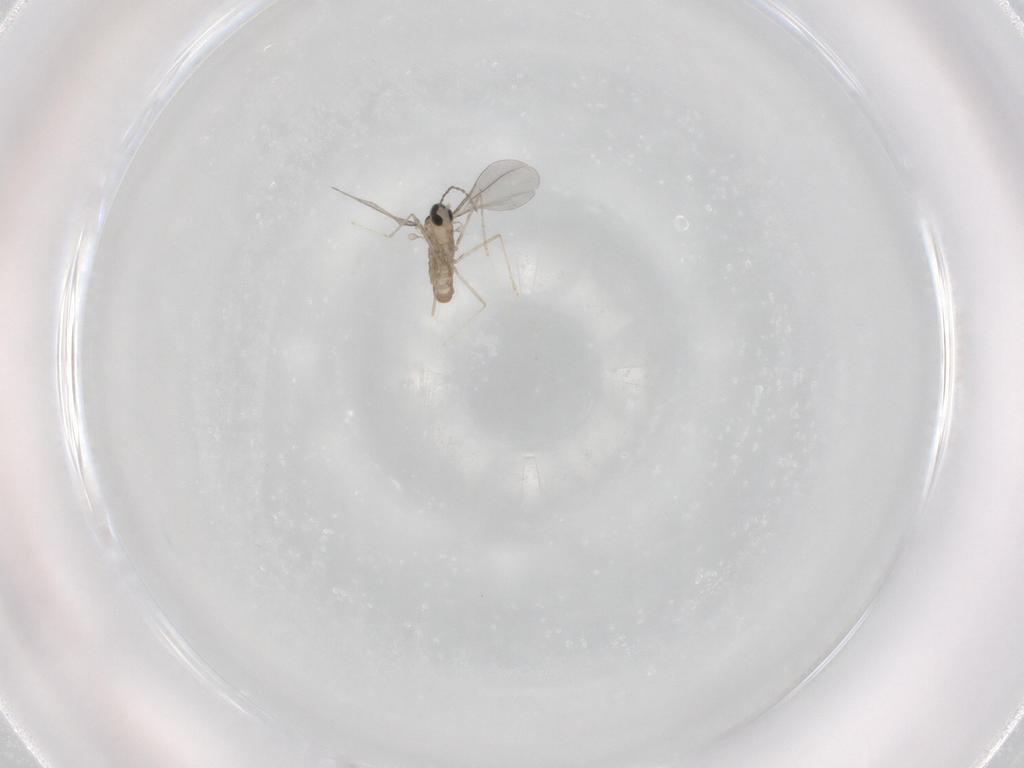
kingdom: Animalia
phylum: Arthropoda
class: Insecta
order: Diptera
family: Cecidomyiidae
